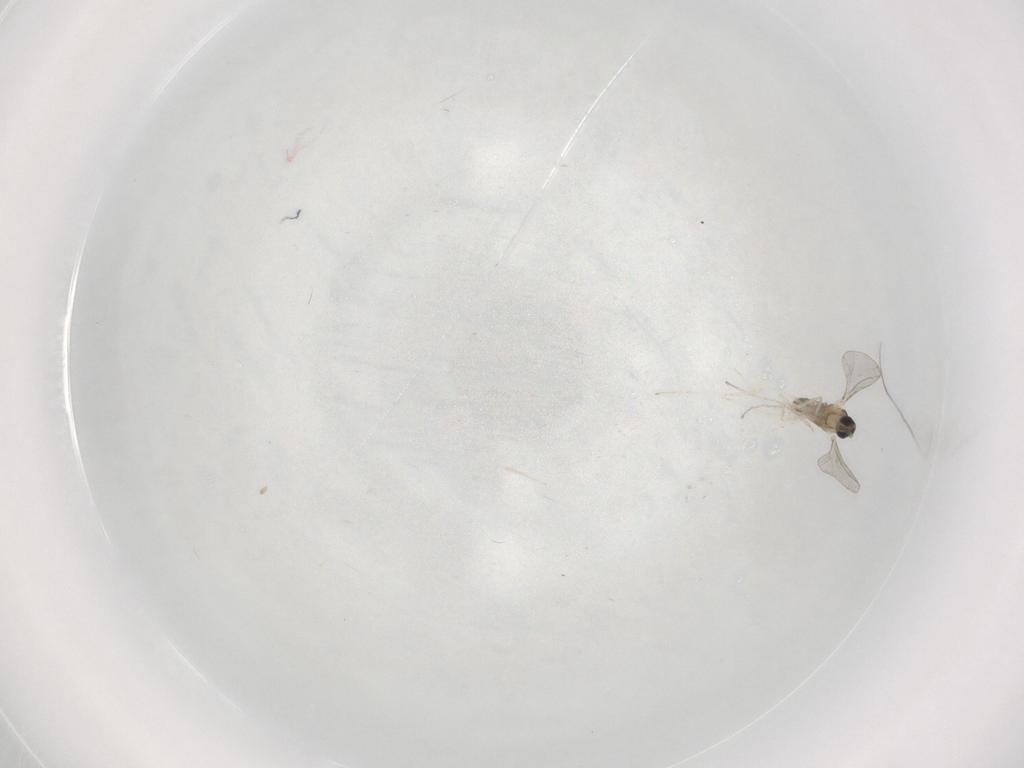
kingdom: Animalia
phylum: Arthropoda
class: Insecta
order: Diptera
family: Cecidomyiidae
